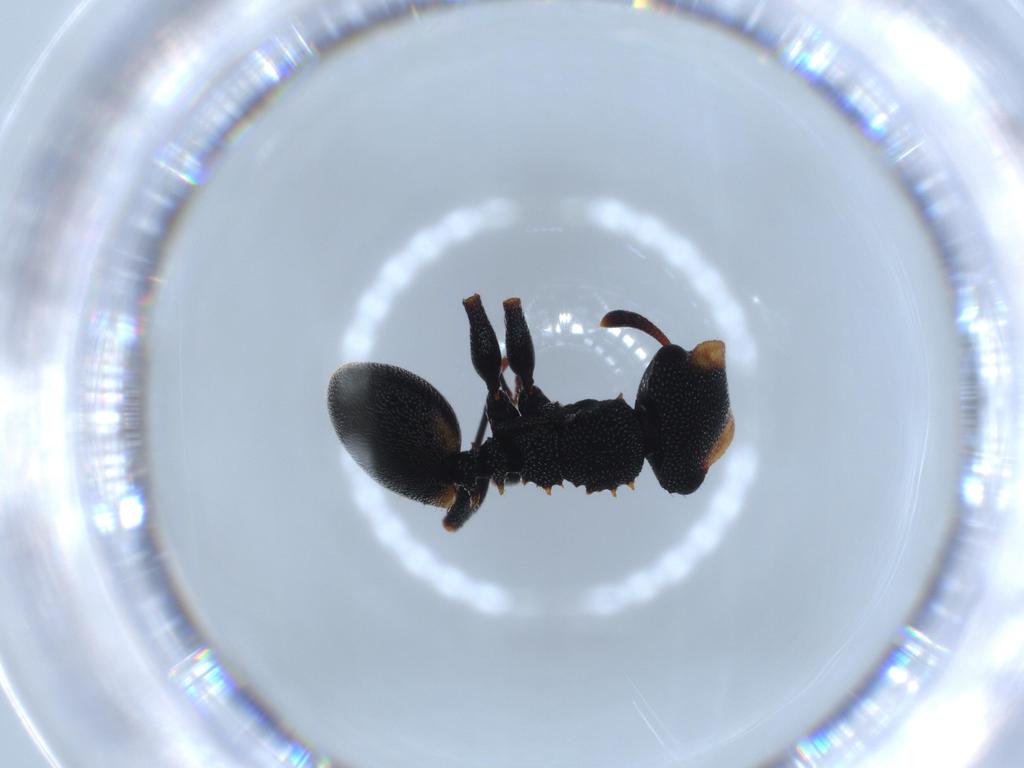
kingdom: Animalia
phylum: Arthropoda
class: Insecta
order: Hymenoptera
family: Formicidae
